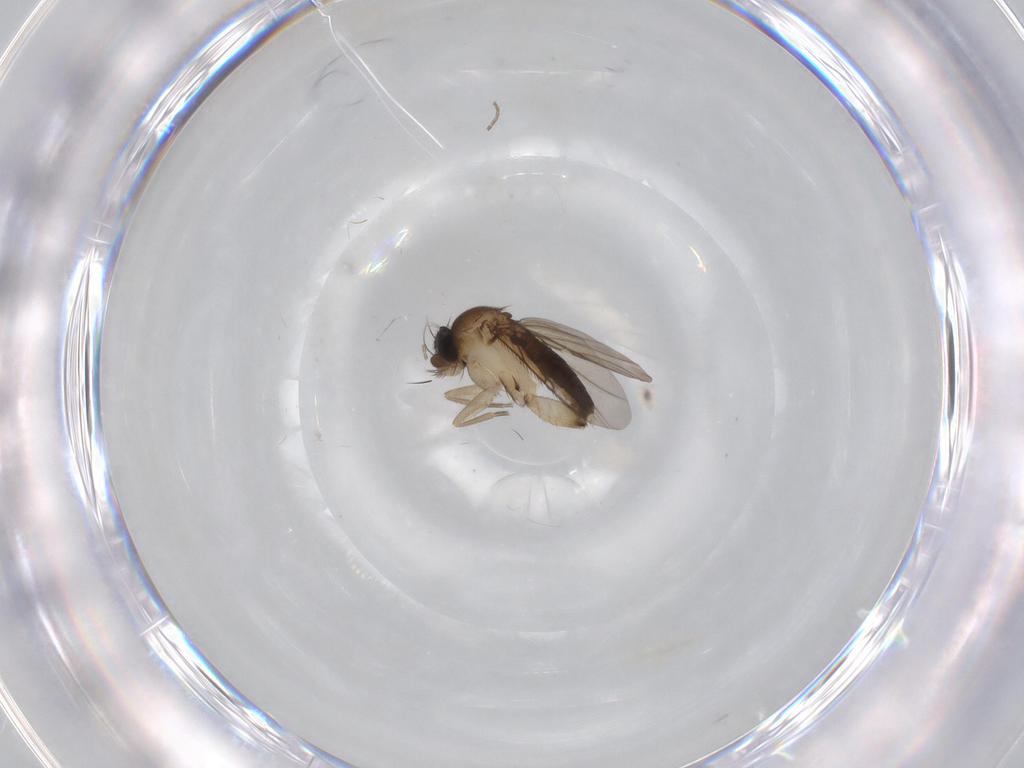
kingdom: Animalia
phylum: Arthropoda
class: Insecta
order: Diptera
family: Phoridae
